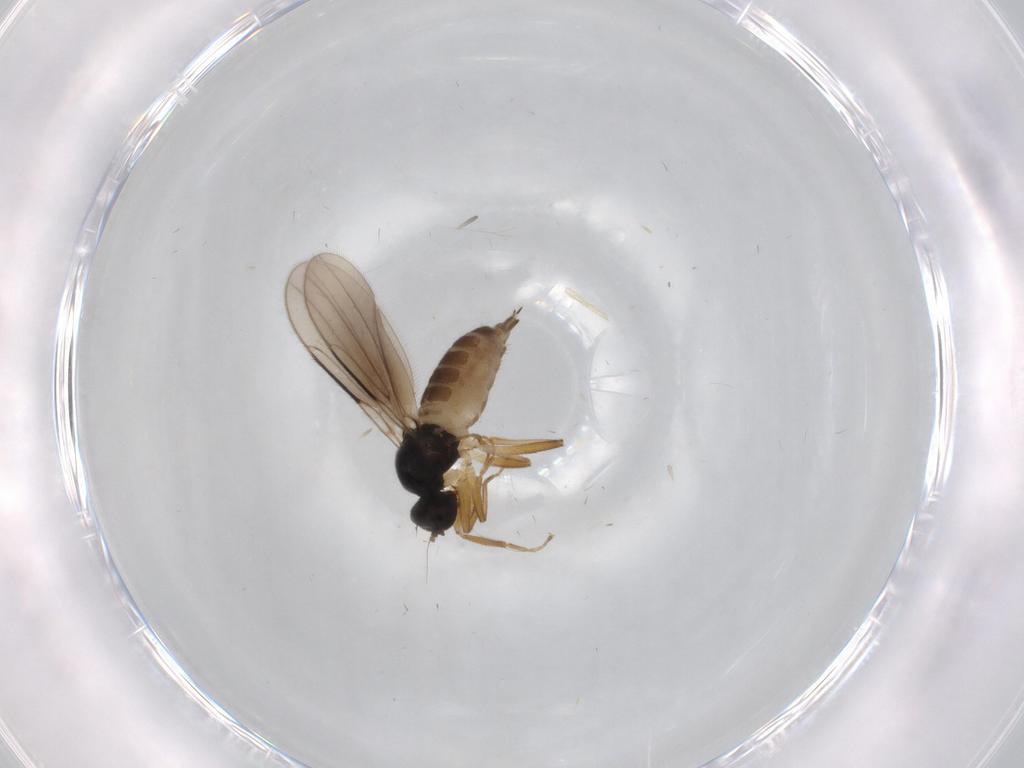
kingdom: Animalia
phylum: Arthropoda
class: Insecta
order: Diptera
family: Hybotidae
